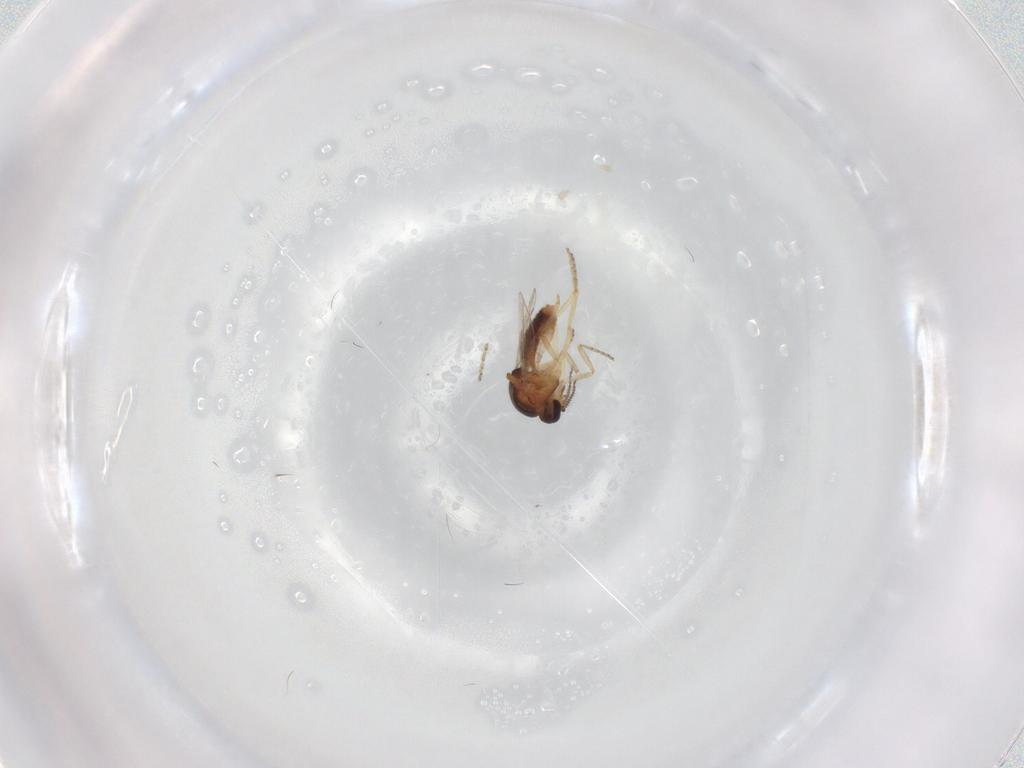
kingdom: Animalia
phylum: Arthropoda
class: Insecta
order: Diptera
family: Ceratopogonidae
